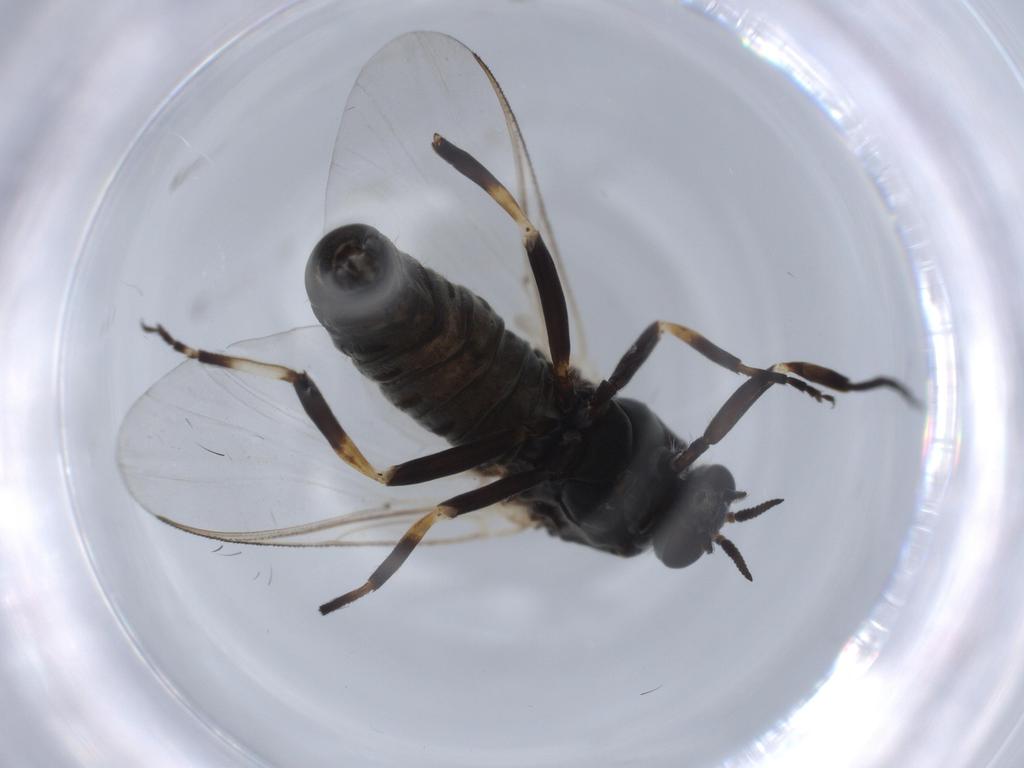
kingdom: Animalia
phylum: Arthropoda
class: Insecta
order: Diptera
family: Simuliidae
